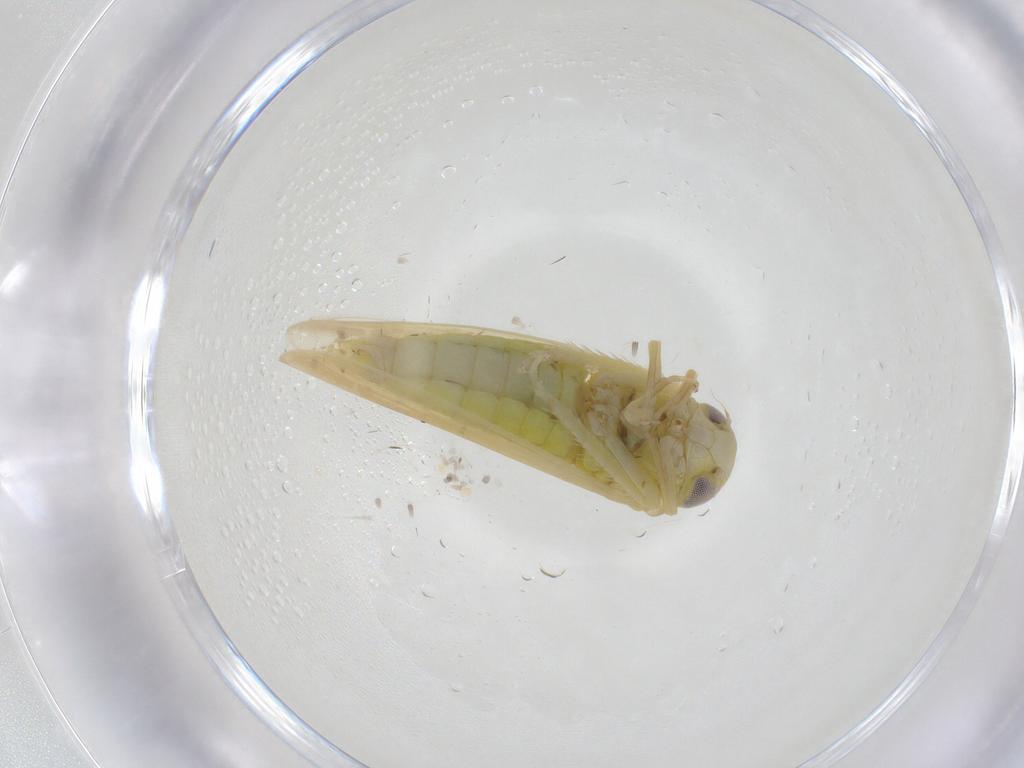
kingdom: Animalia
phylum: Arthropoda
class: Insecta
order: Hemiptera
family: Cicadellidae
